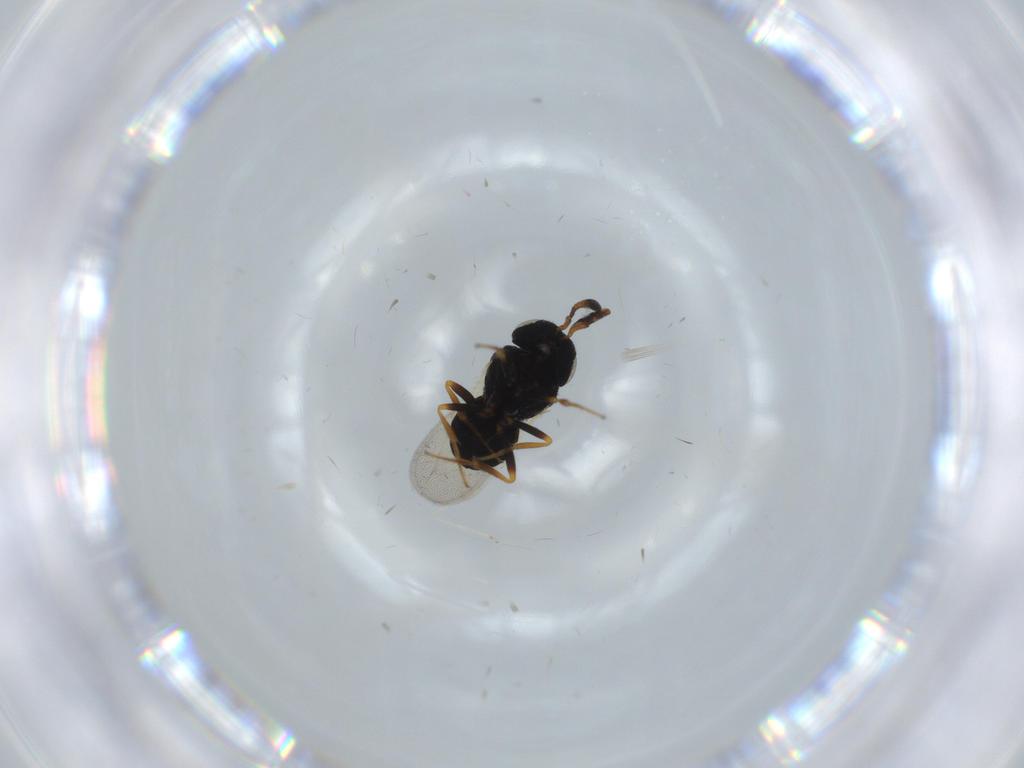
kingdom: Animalia
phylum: Arthropoda
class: Insecta
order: Hymenoptera
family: Scelionidae
